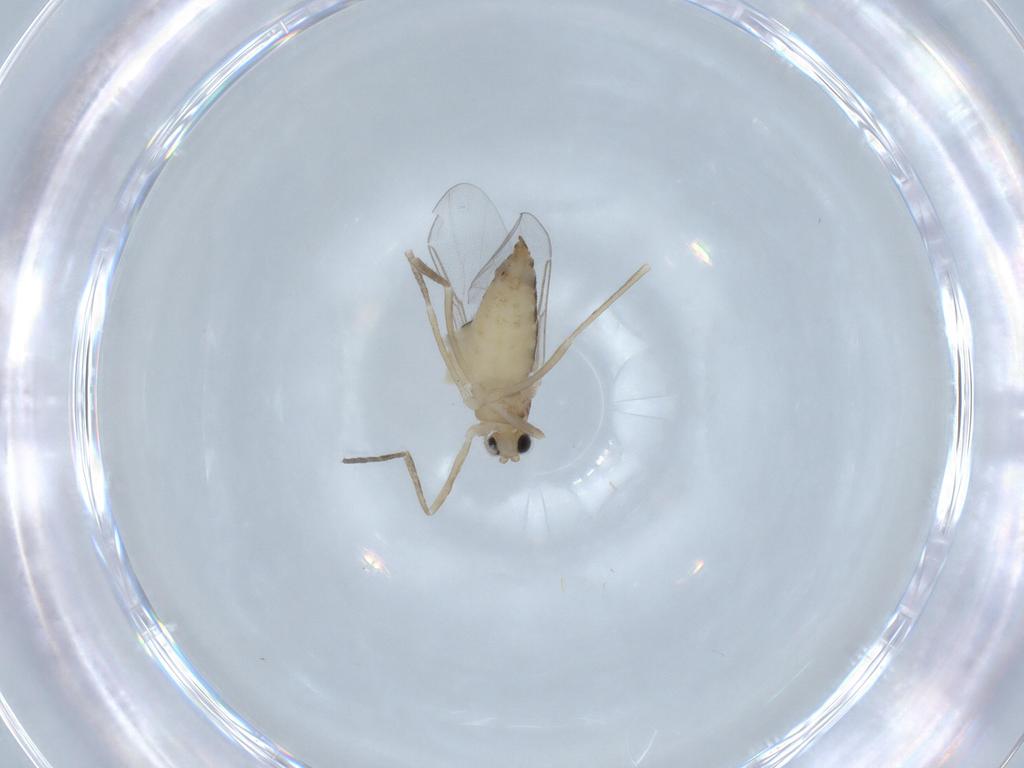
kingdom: Animalia
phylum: Arthropoda
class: Insecta
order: Diptera
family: Cecidomyiidae
